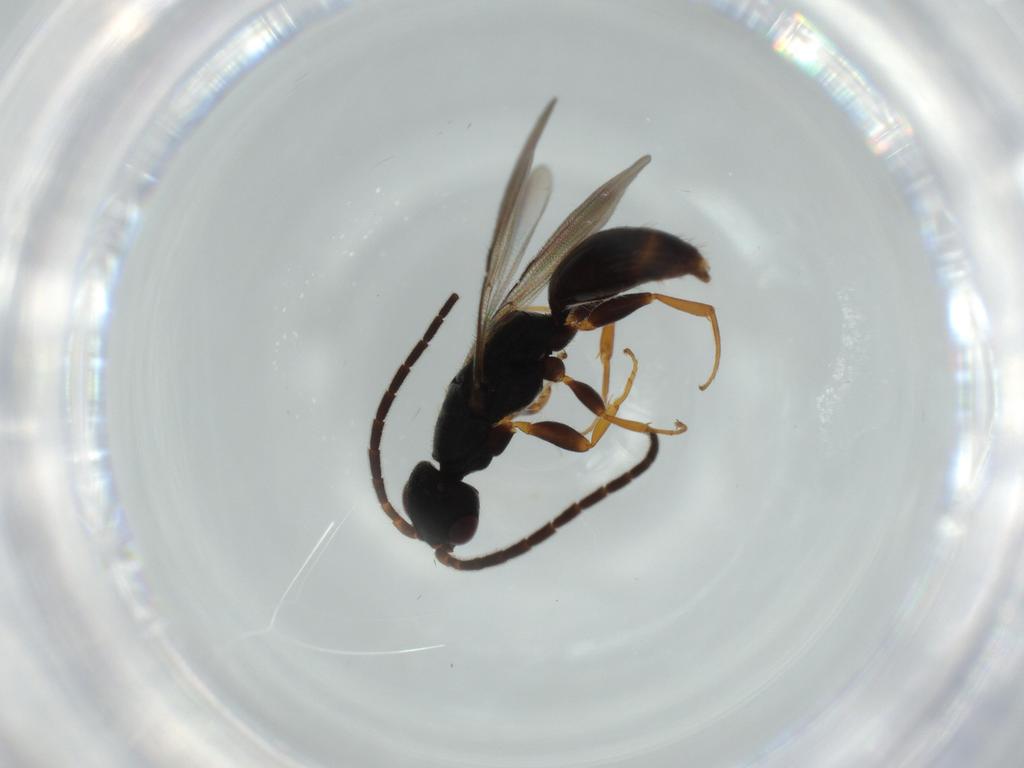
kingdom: Animalia
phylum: Arthropoda
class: Insecta
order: Hymenoptera
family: Bethylidae
